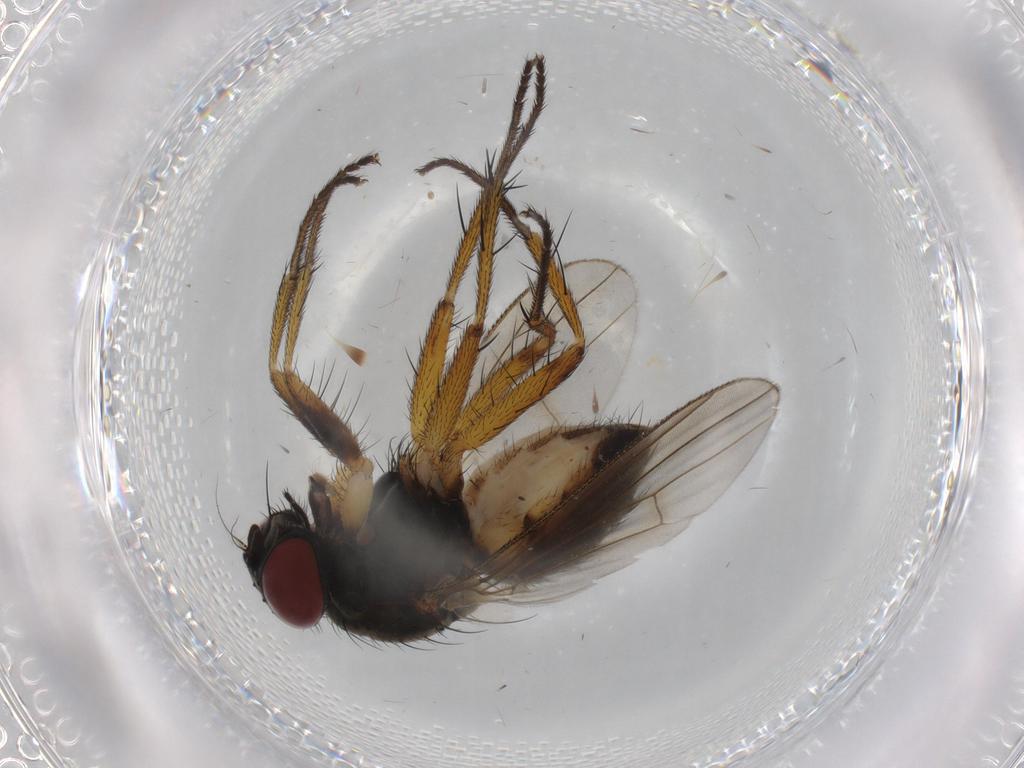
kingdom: Animalia
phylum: Arthropoda
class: Insecta
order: Diptera
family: Muscidae
